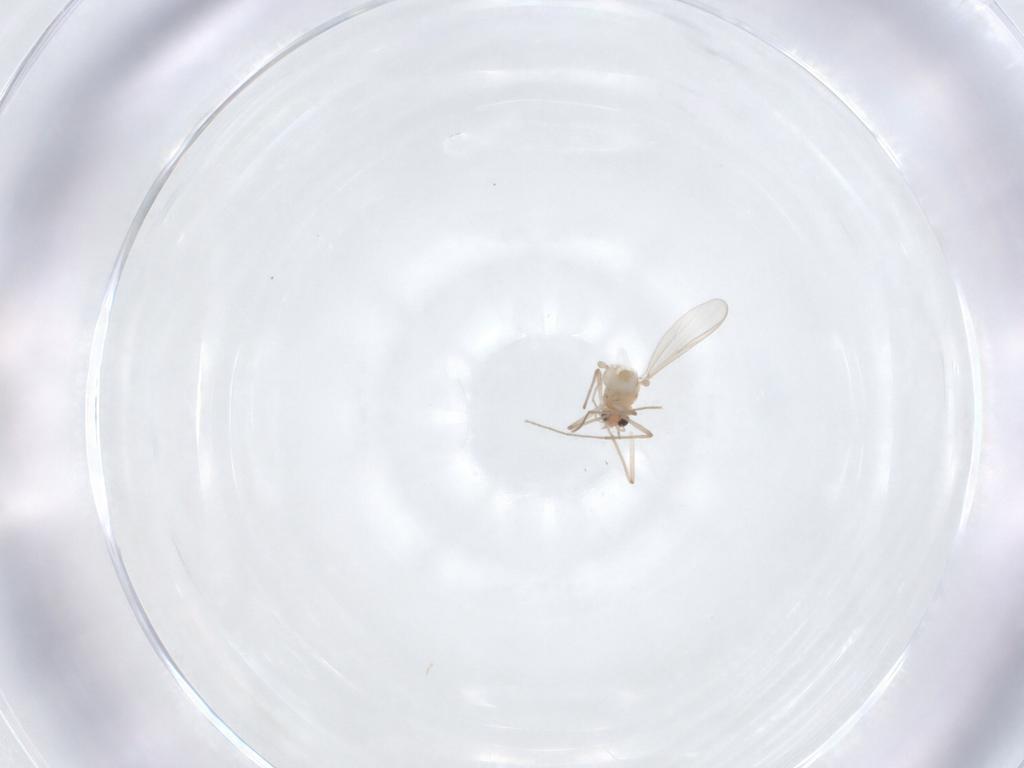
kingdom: Animalia
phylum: Arthropoda
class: Insecta
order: Diptera
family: Chironomidae
